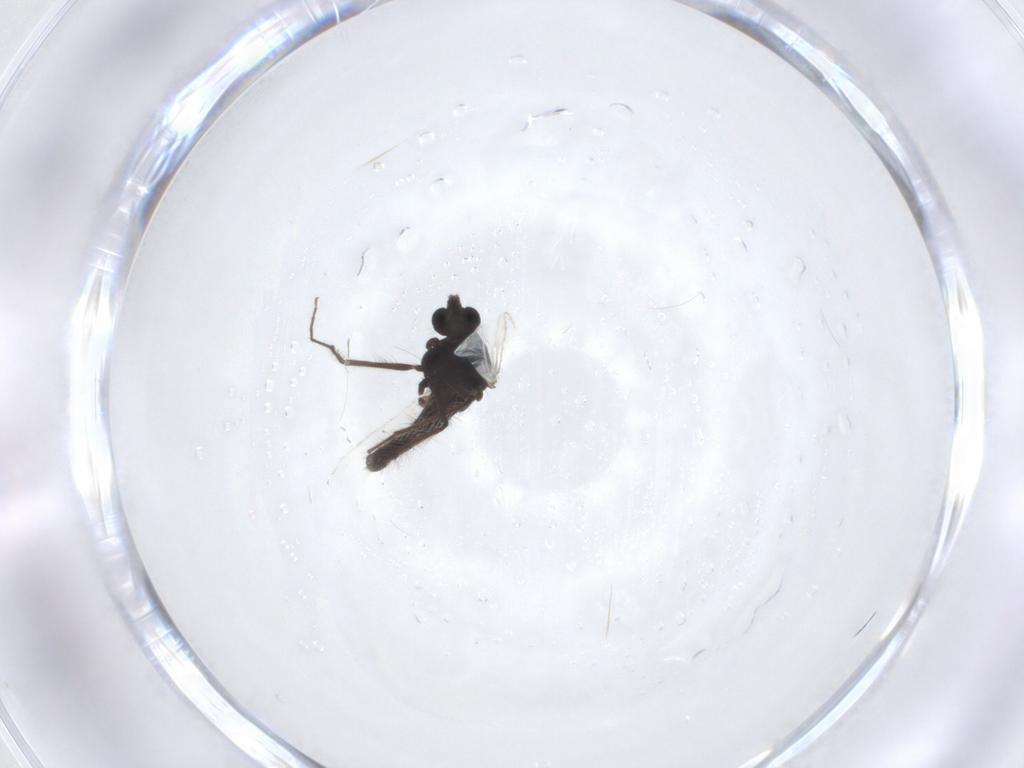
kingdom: Animalia
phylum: Arthropoda
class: Insecta
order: Diptera
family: Chironomidae
